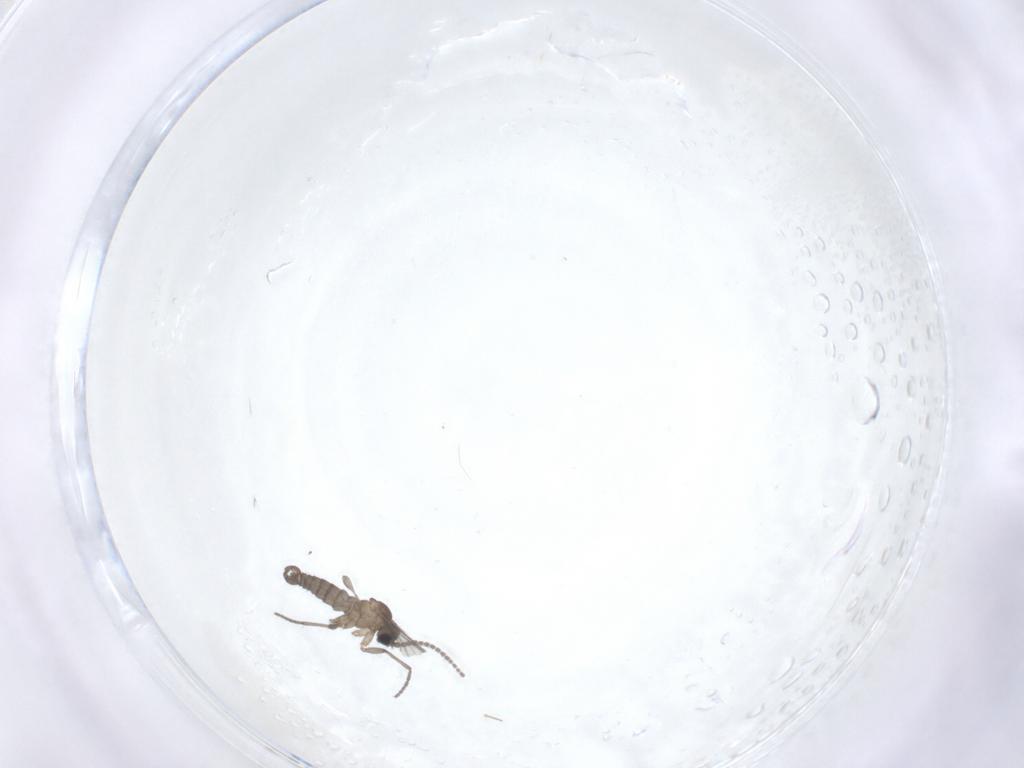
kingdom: Animalia
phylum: Arthropoda
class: Insecta
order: Diptera
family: Sciaridae
